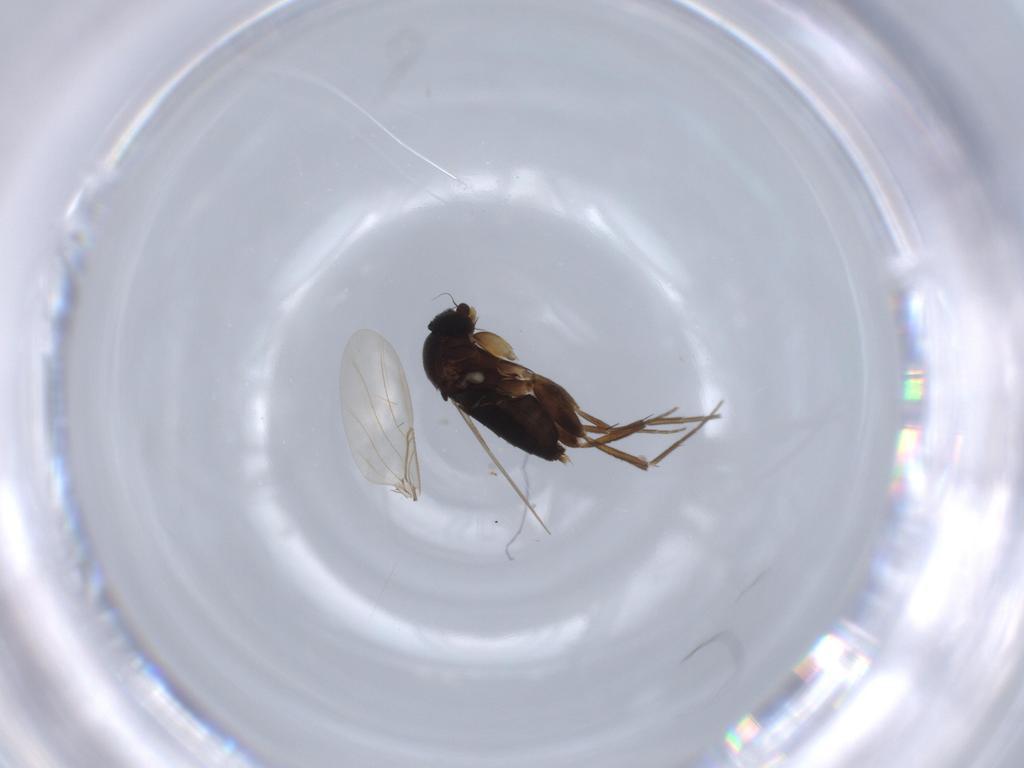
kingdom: Animalia
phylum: Arthropoda
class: Insecta
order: Diptera
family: Phoridae
